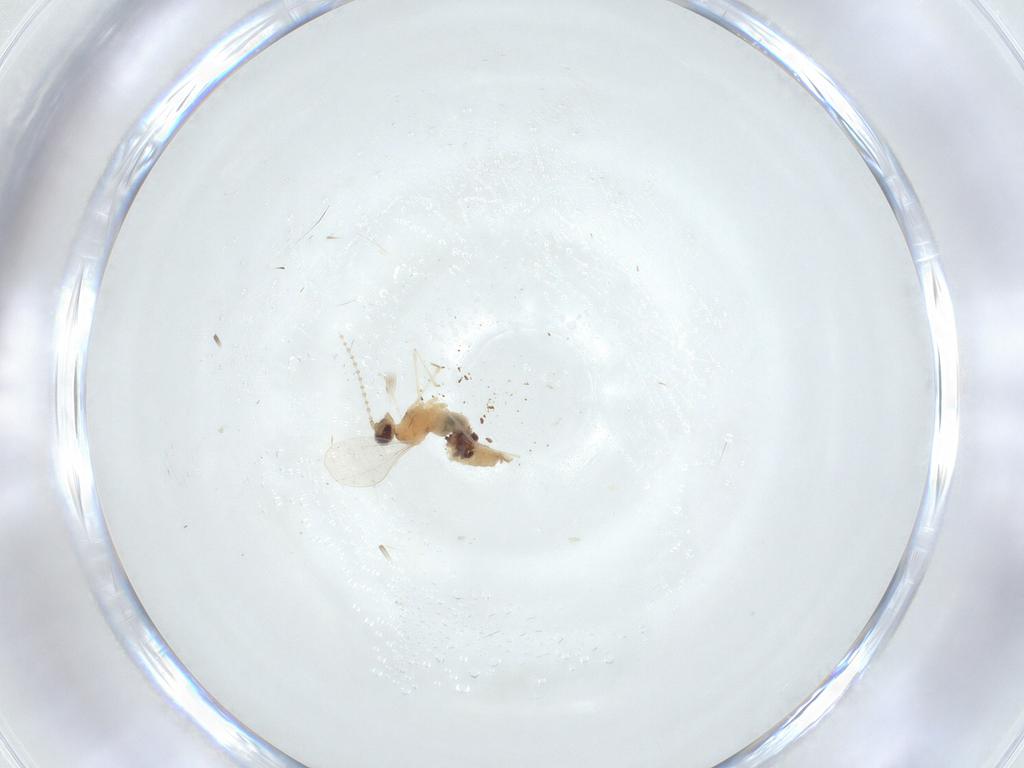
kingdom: Animalia
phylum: Arthropoda
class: Insecta
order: Diptera
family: Cecidomyiidae
